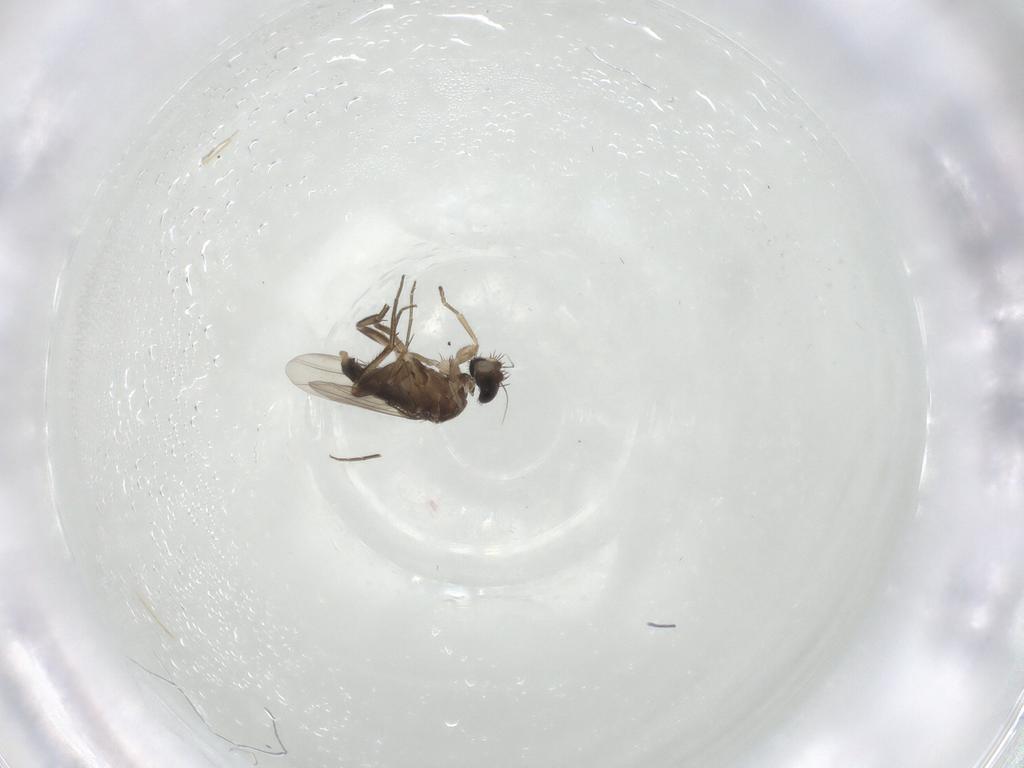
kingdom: Animalia
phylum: Arthropoda
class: Insecta
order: Diptera
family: Phoridae
